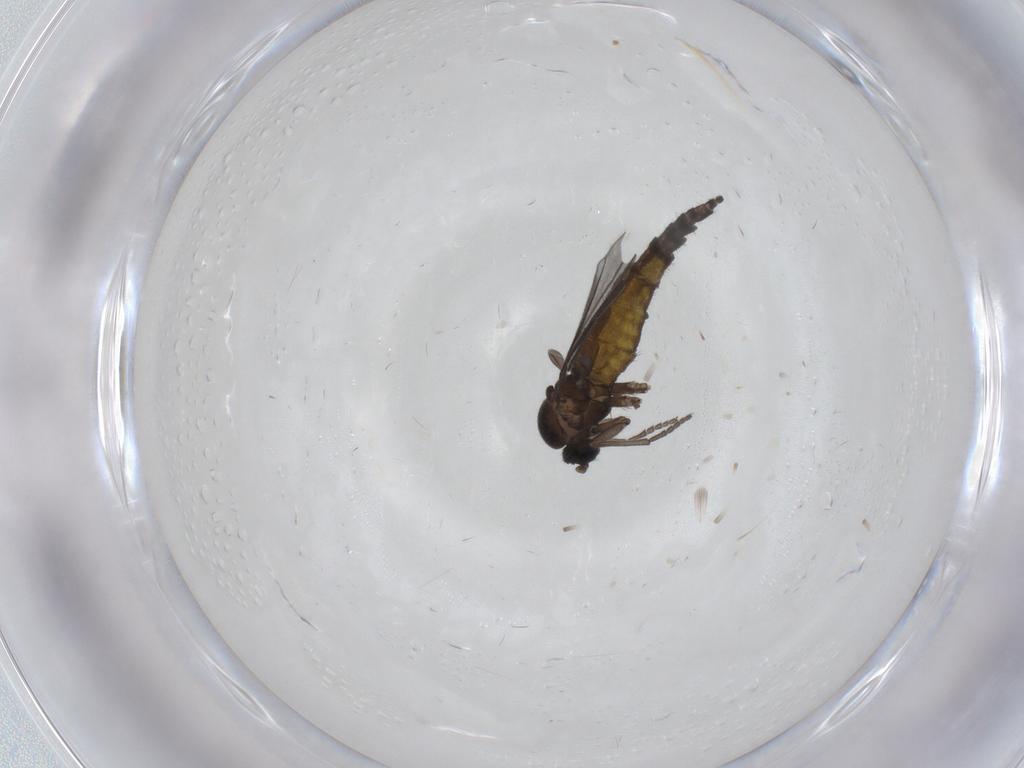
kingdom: Animalia
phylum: Arthropoda
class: Insecta
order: Diptera
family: Sciaridae
